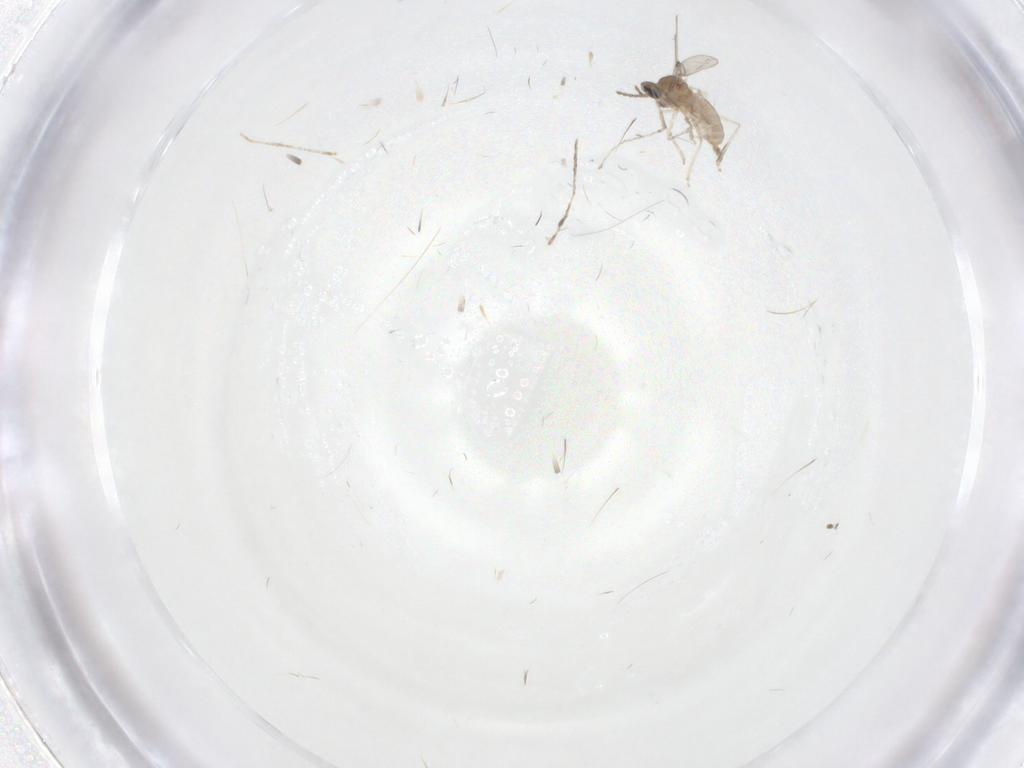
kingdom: Animalia
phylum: Arthropoda
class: Insecta
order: Diptera
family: Cecidomyiidae
